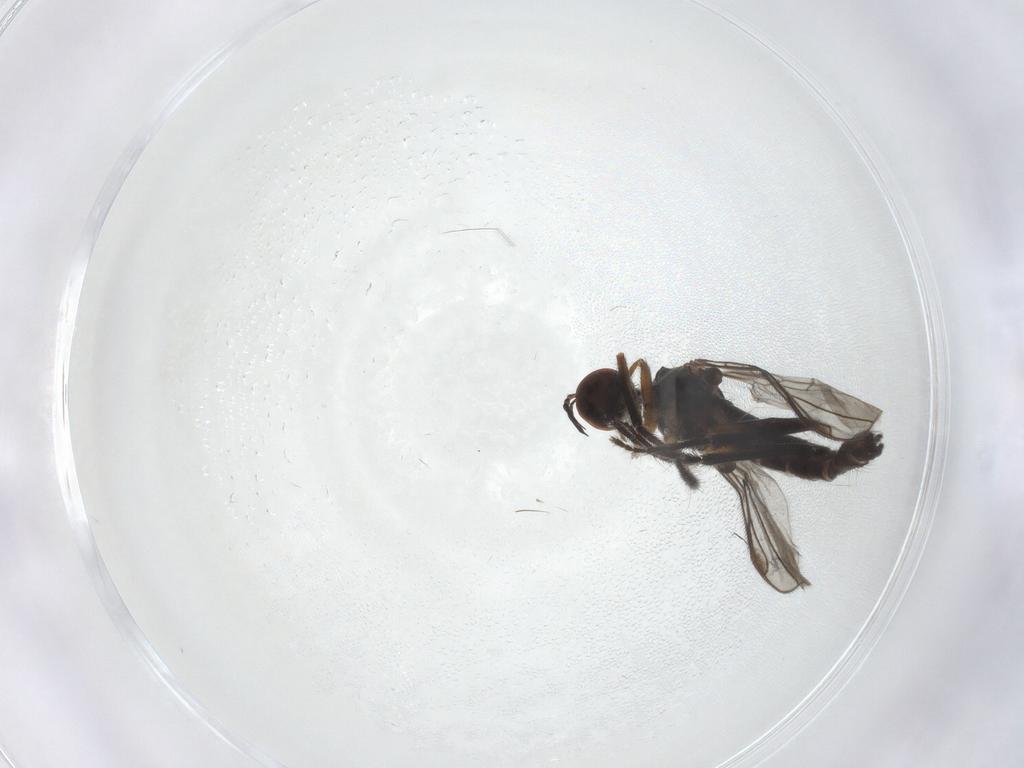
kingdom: Animalia
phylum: Arthropoda
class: Insecta
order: Diptera
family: Empididae
